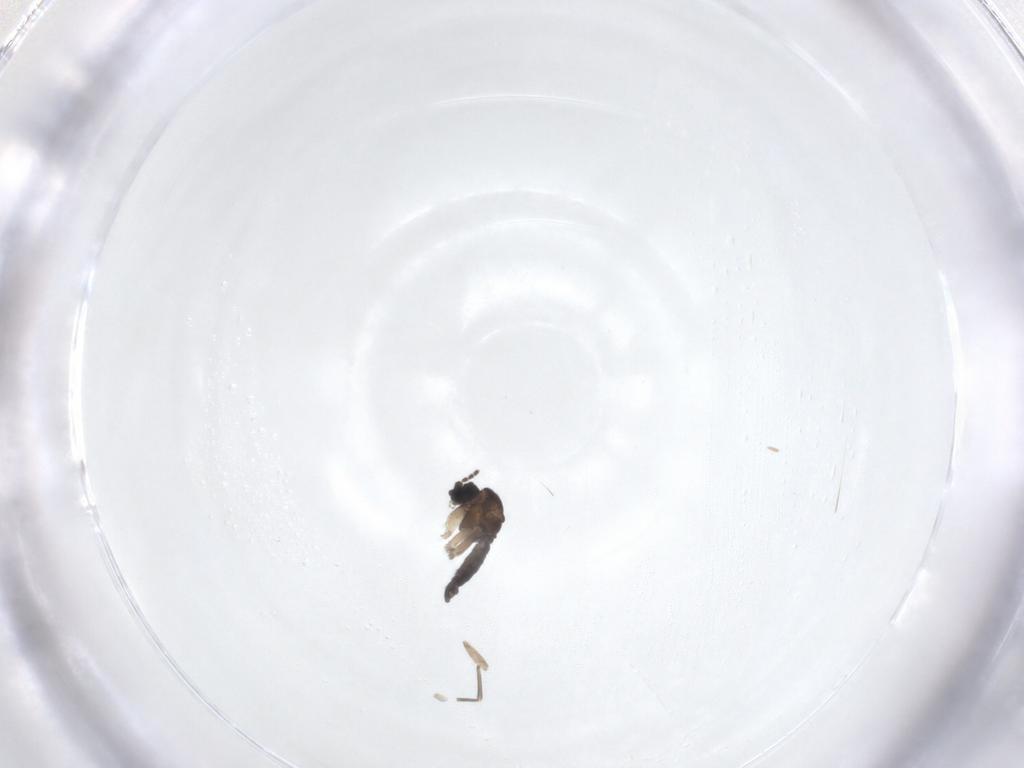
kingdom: Animalia
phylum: Arthropoda
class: Insecta
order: Diptera
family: Sciaridae
